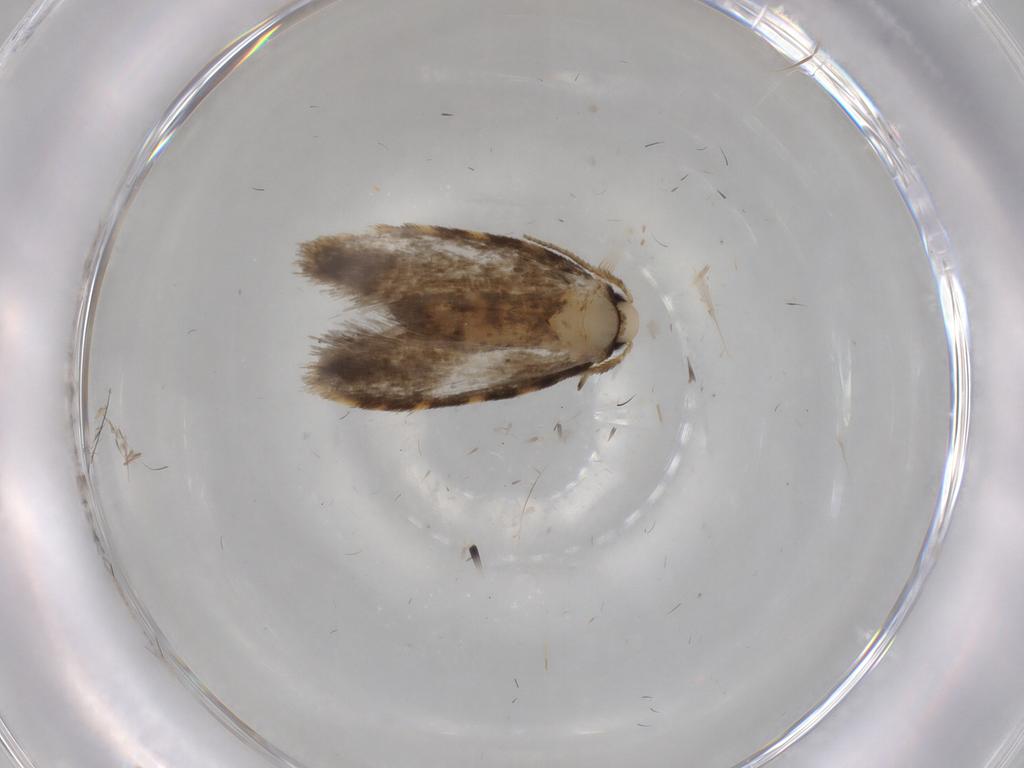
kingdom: Animalia
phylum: Arthropoda
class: Insecta
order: Lepidoptera
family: Psychidae
